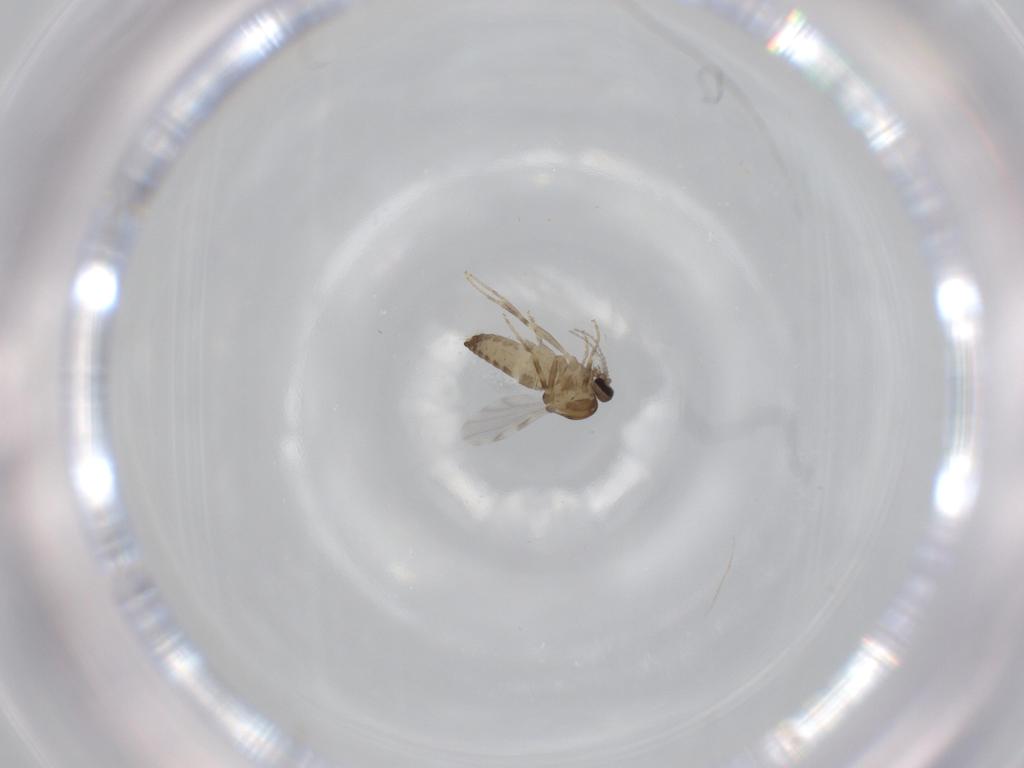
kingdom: Animalia
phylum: Arthropoda
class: Insecta
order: Diptera
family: Ceratopogonidae
